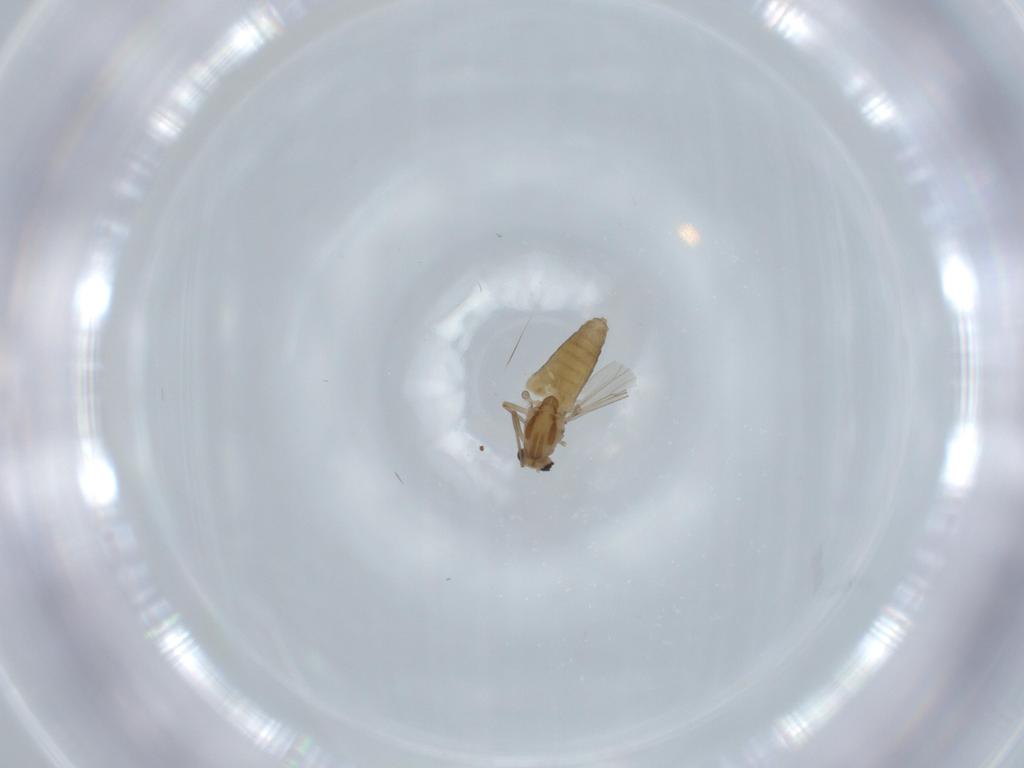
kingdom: Animalia
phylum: Arthropoda
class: Insecta
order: Diptera
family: Chironomidae
